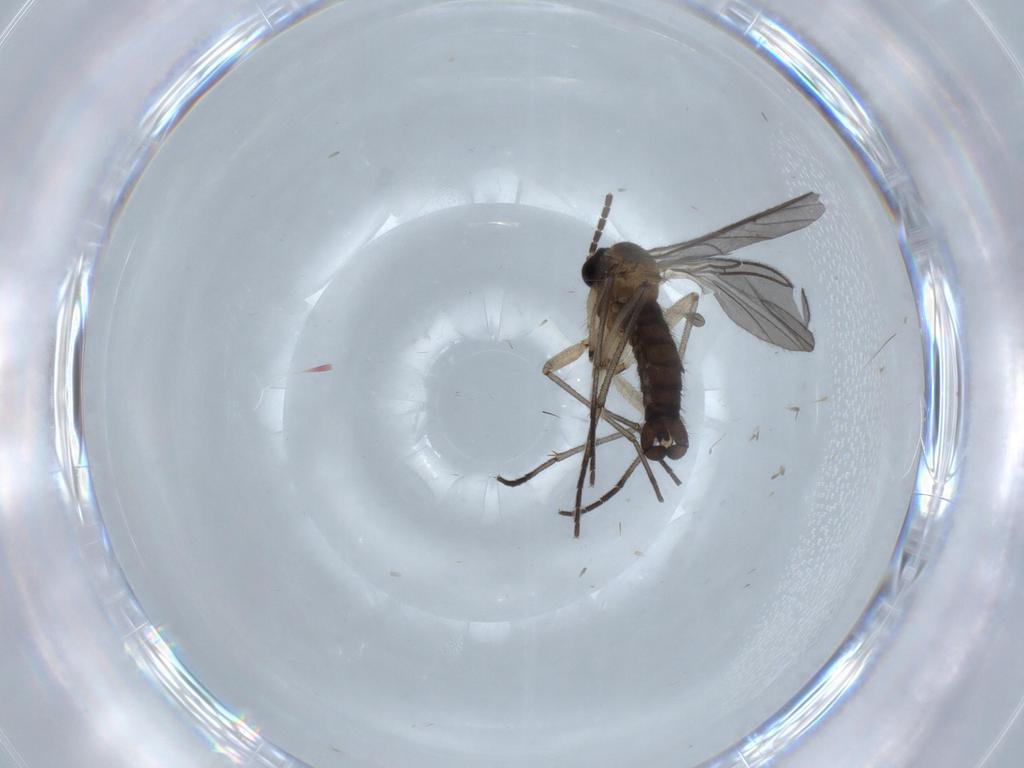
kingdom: Animalia
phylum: Arthropoda
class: Insecta
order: Diptera
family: Sciaridae
